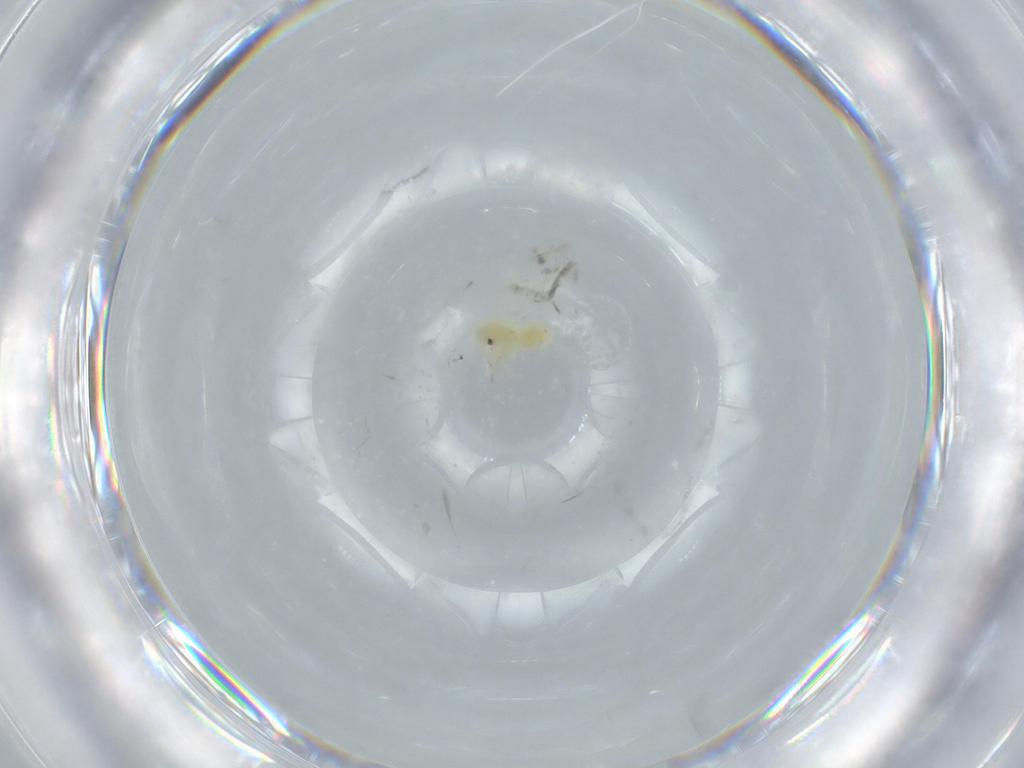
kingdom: Animalia
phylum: Arthropoda
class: Insecta
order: Hemiptera
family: Aleyrodidae
